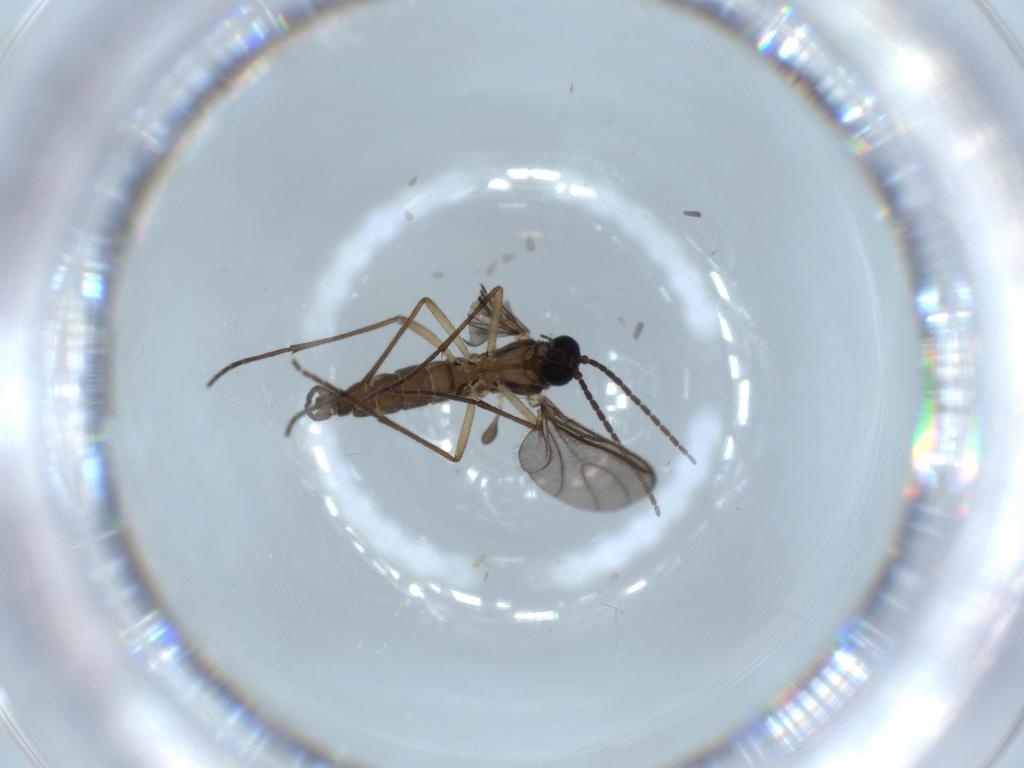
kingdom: Animalia
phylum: Arthropoda
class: Insecta
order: Diptera
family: Sciaridae
